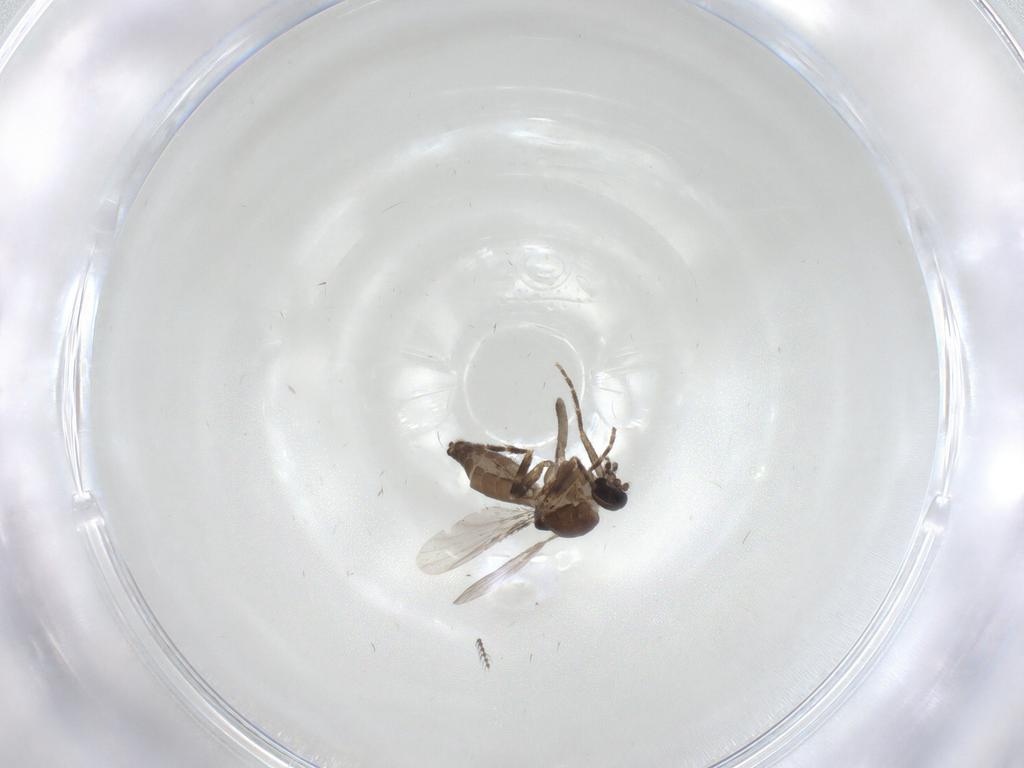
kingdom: Animalia
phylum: Arthropoda
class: Insecta
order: Diptera
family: Ceratopogonidae
